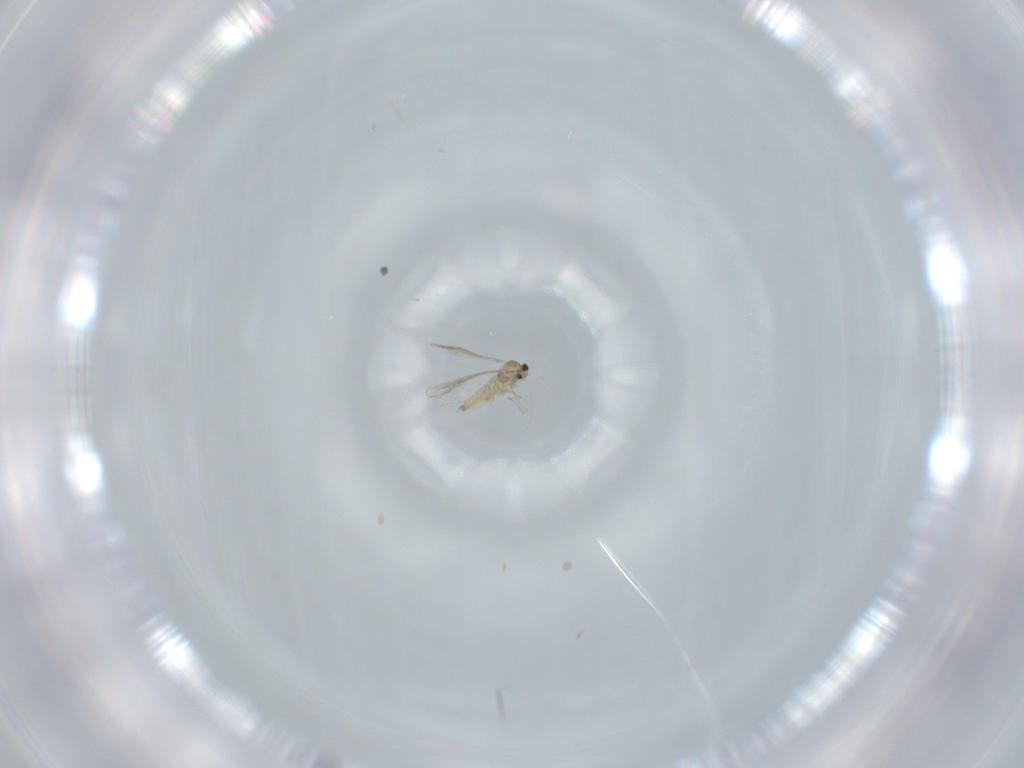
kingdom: Animalia
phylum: Arthropoda
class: Insecta
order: Diptera
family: Cecidomyiidae
